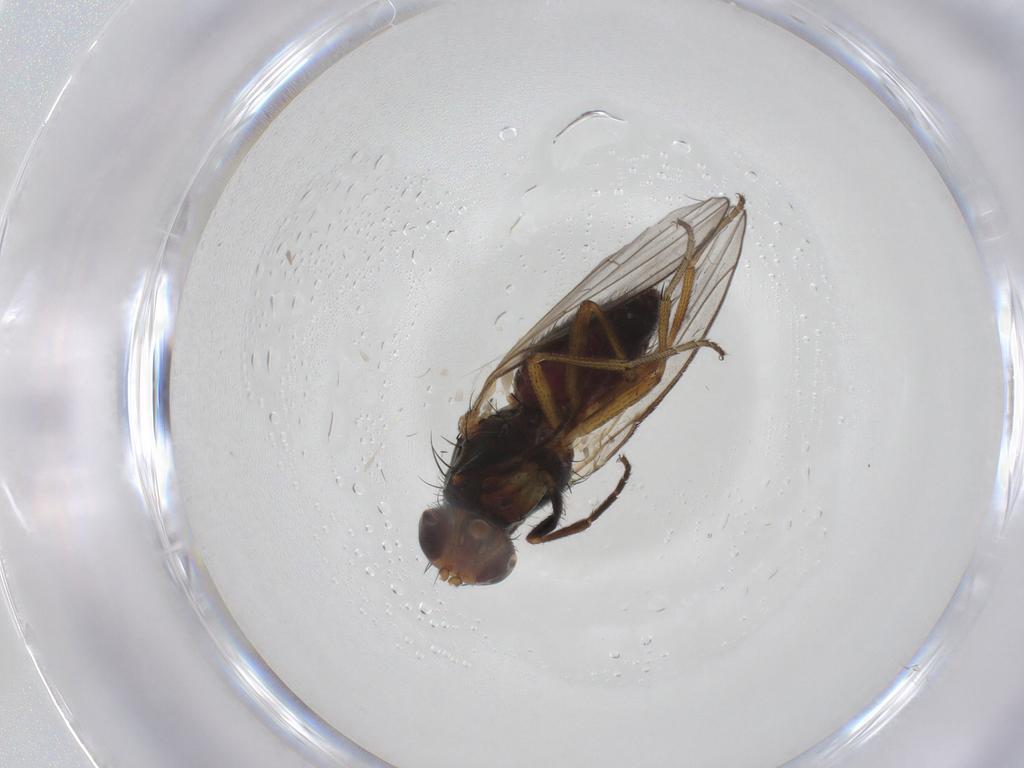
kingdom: Animalia
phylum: Arthropoda
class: Insecta
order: Diptera
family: Heleomyzidae
